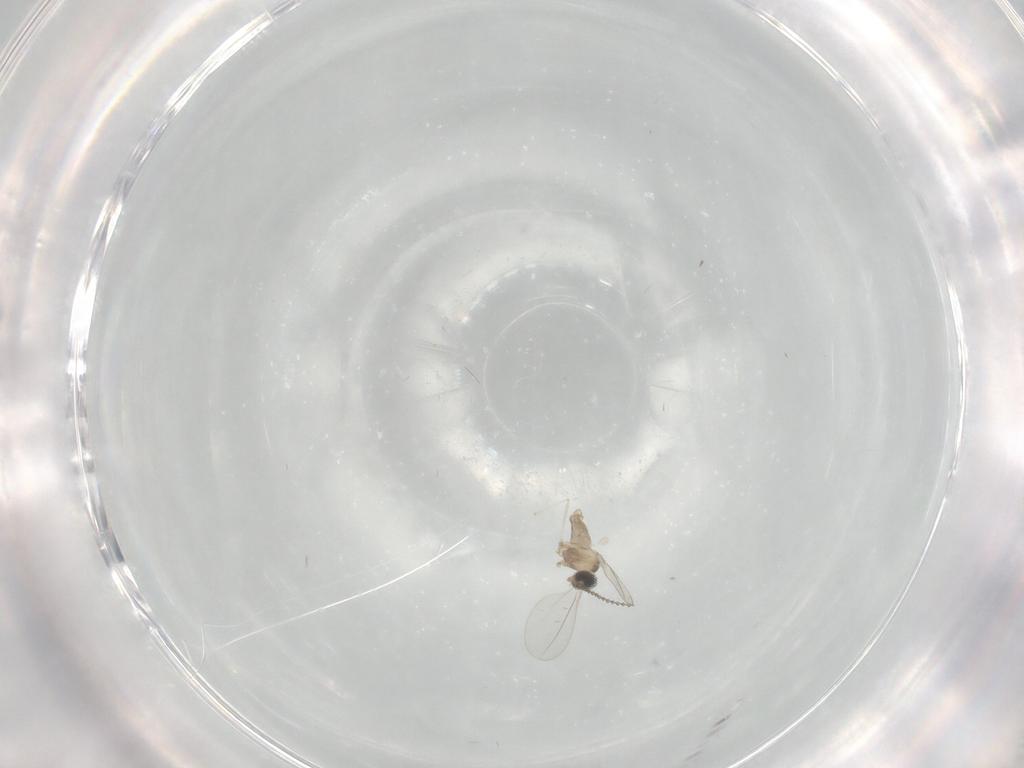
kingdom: Animalia
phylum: Arthropoda
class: Insecta
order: Diptera
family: Cecidomyiidae
